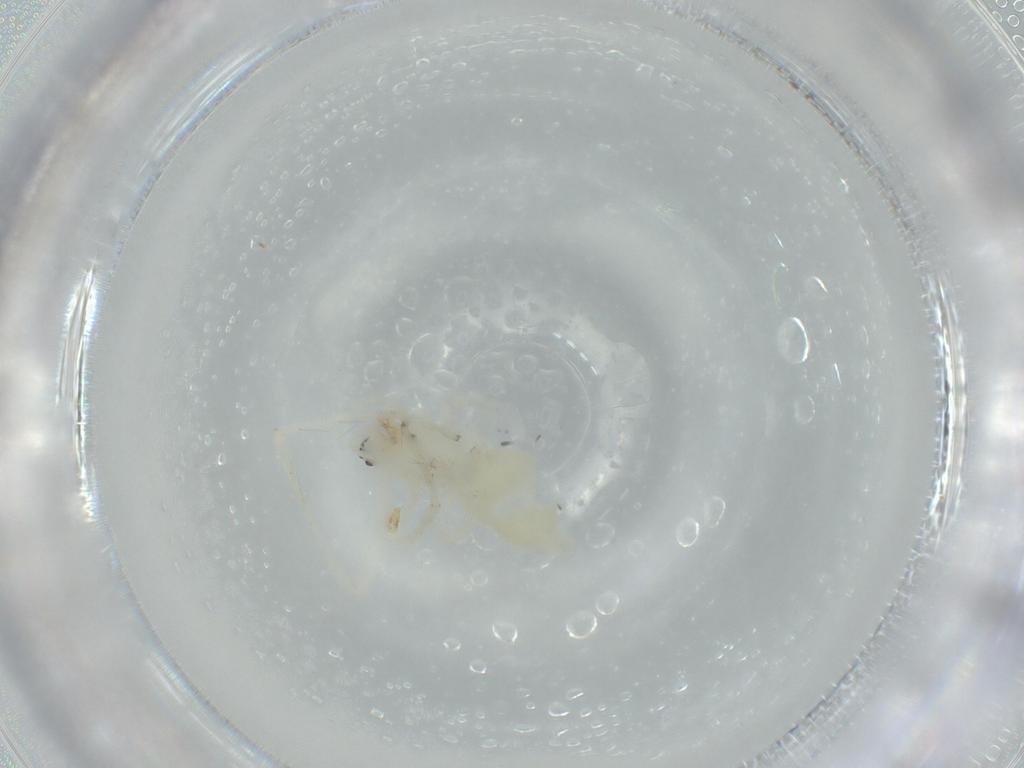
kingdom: Animalia
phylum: Arthropoda
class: Arachnida
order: Araneae
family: Anyphaenidae
